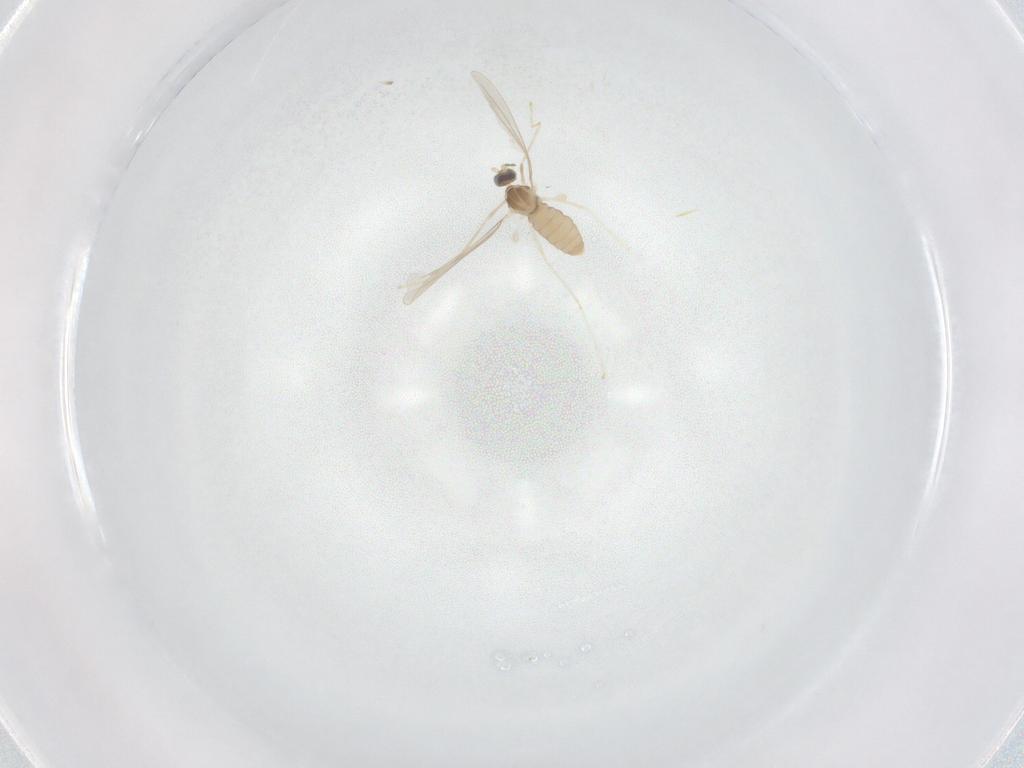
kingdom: Animalia
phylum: Arthropoda
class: Insecta
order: Diptera
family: Cecidomyiidae
